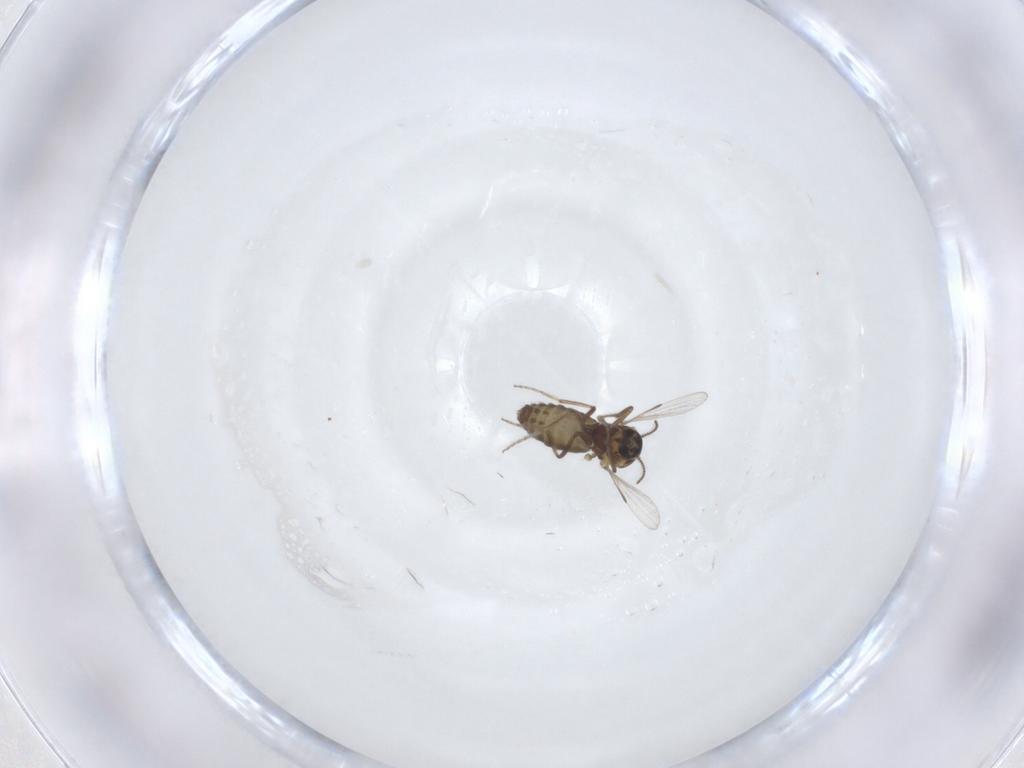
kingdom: Animalia
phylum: Arthropoda
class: Insecta
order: Diptera
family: Ceratopogonidae
